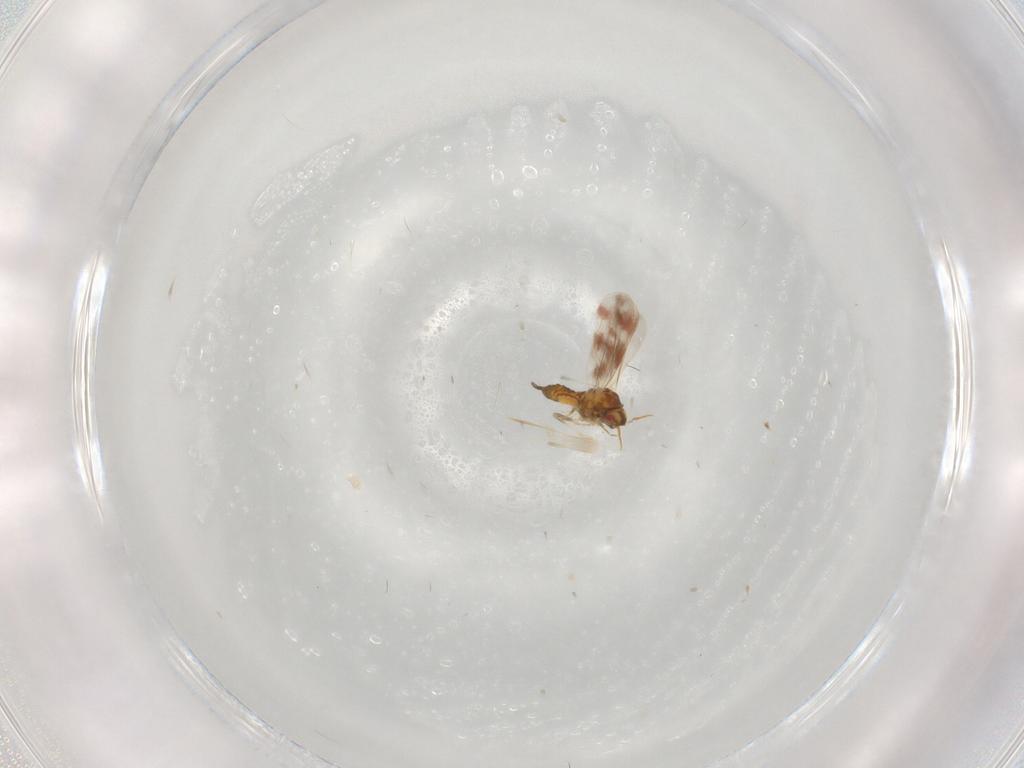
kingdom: Animalia
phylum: Arthropoda
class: Insecta
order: Hemiptera
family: Aleyrodidae
